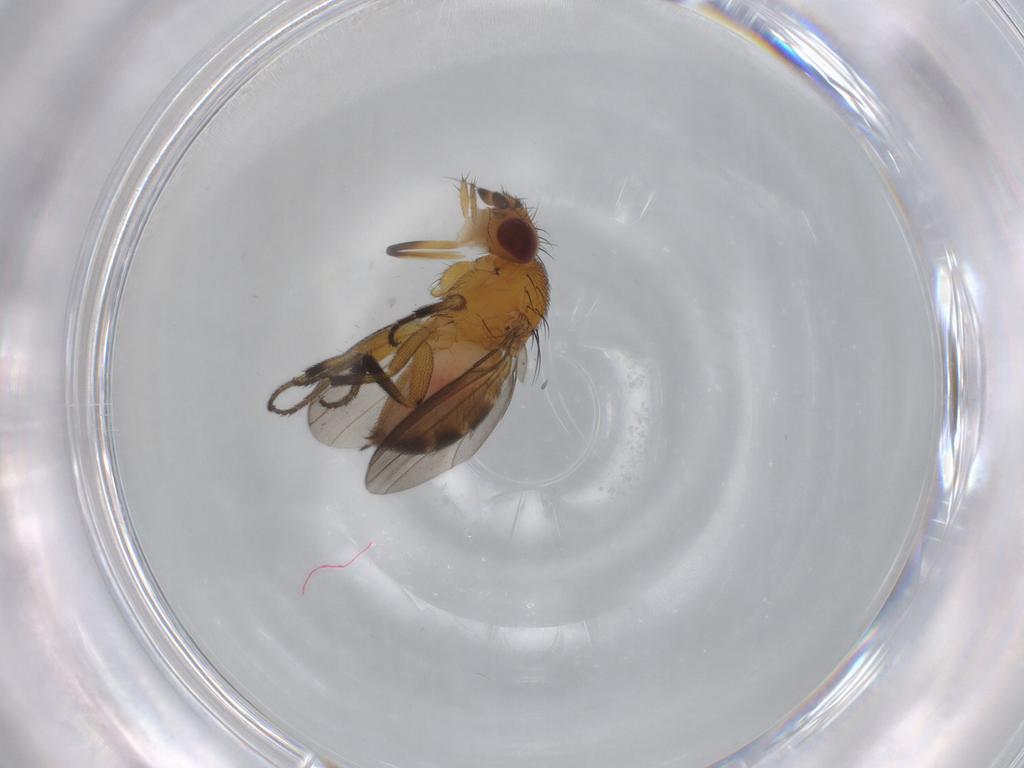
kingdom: Animalia
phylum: Arthropoda
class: Insecta
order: Diptera
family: Milichiidae
